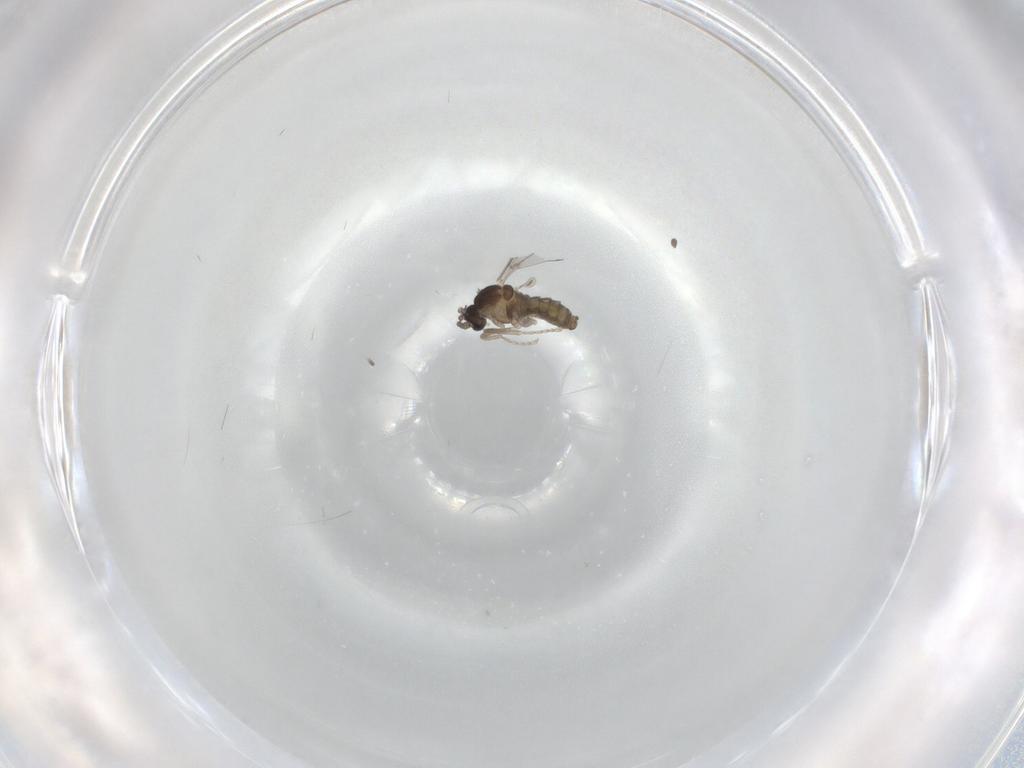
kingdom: Animalia
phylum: Arthropoda
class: Insecta
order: Diptera
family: Cecidomyiidae
